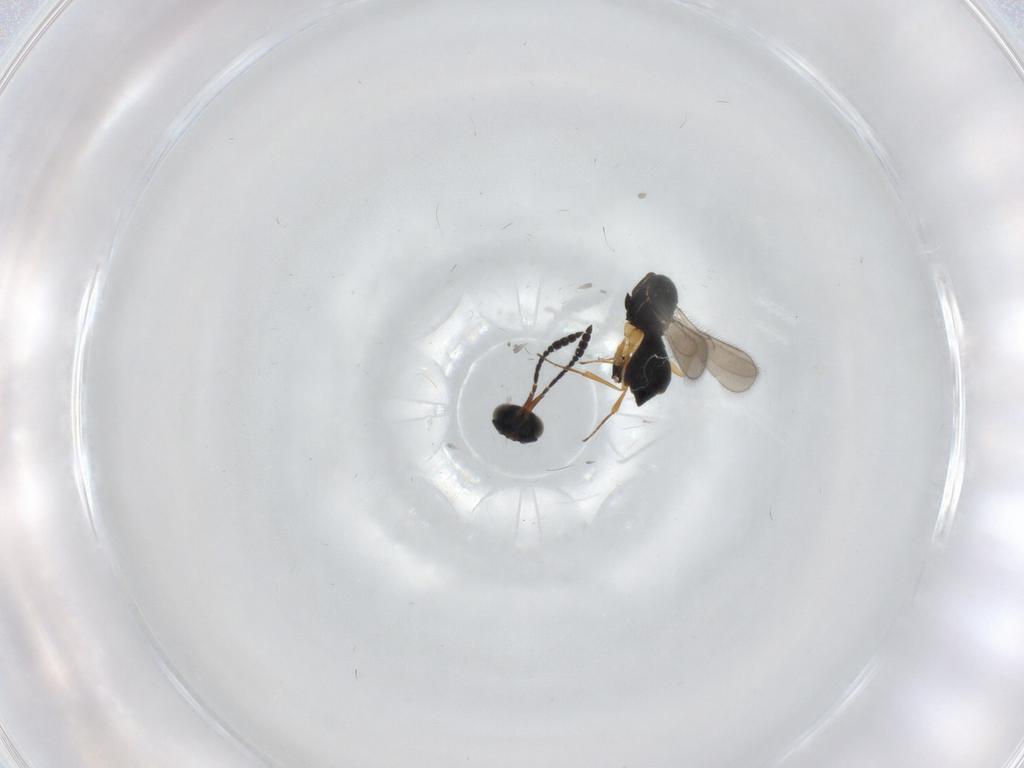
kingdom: Animalia
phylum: Arthropoda
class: Insecta
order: Hymenoptera
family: Scelionidae
